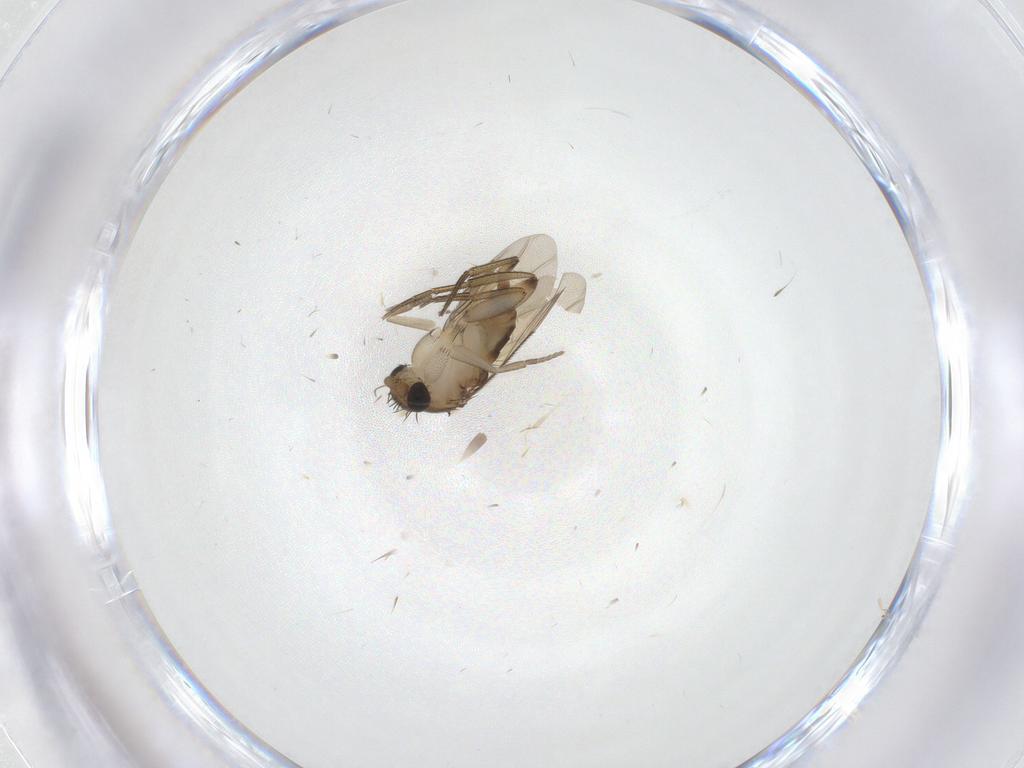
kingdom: Animalia
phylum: Arthropoda
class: Insecta
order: Diptera
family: Phoridae
